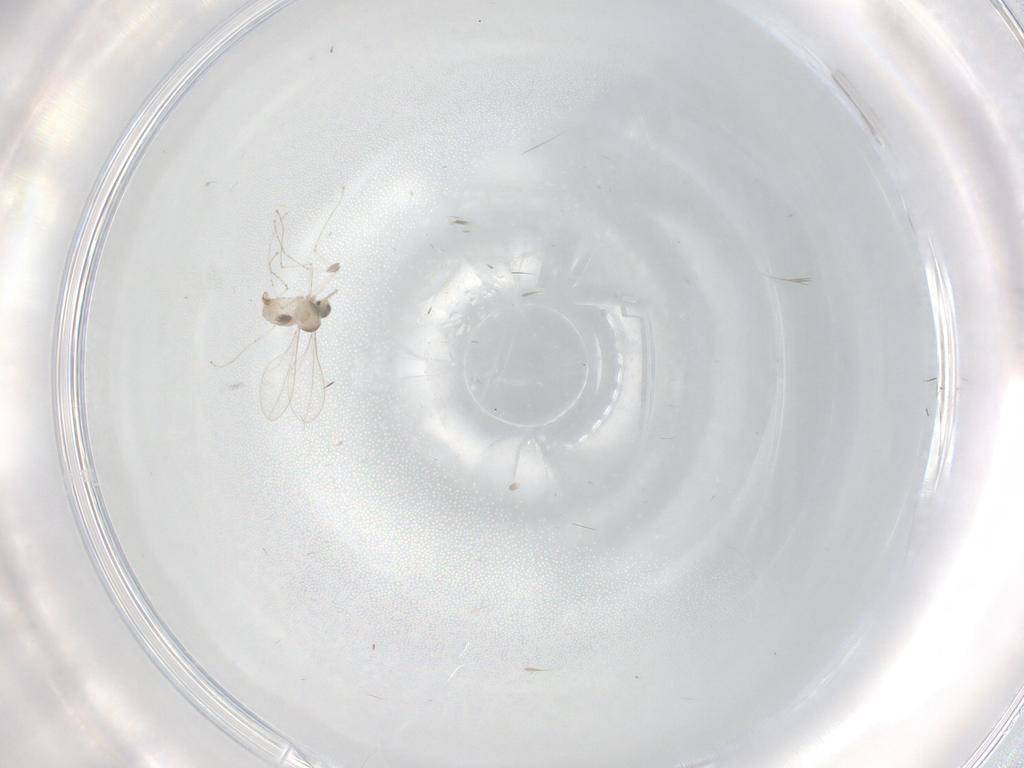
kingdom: Animalia
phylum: Arthropoda
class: Insecta
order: Diptera
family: Cecidomyiidae
